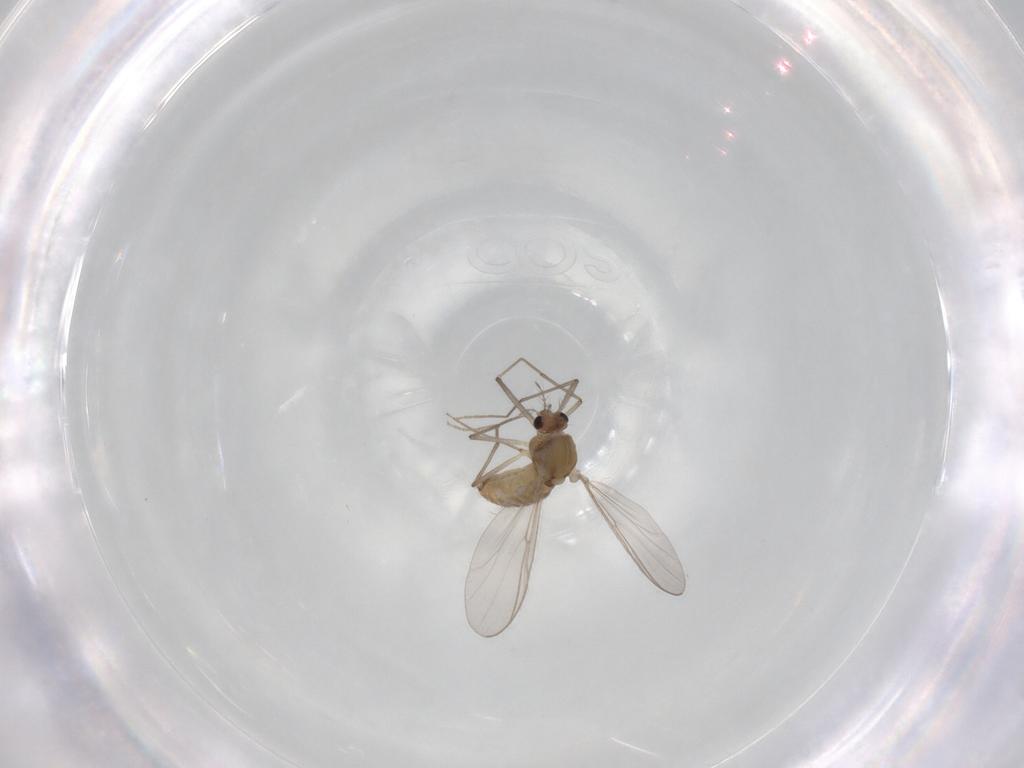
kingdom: Animalia
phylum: Arthropoda
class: Insecta
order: Diptera
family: Chironomidae
